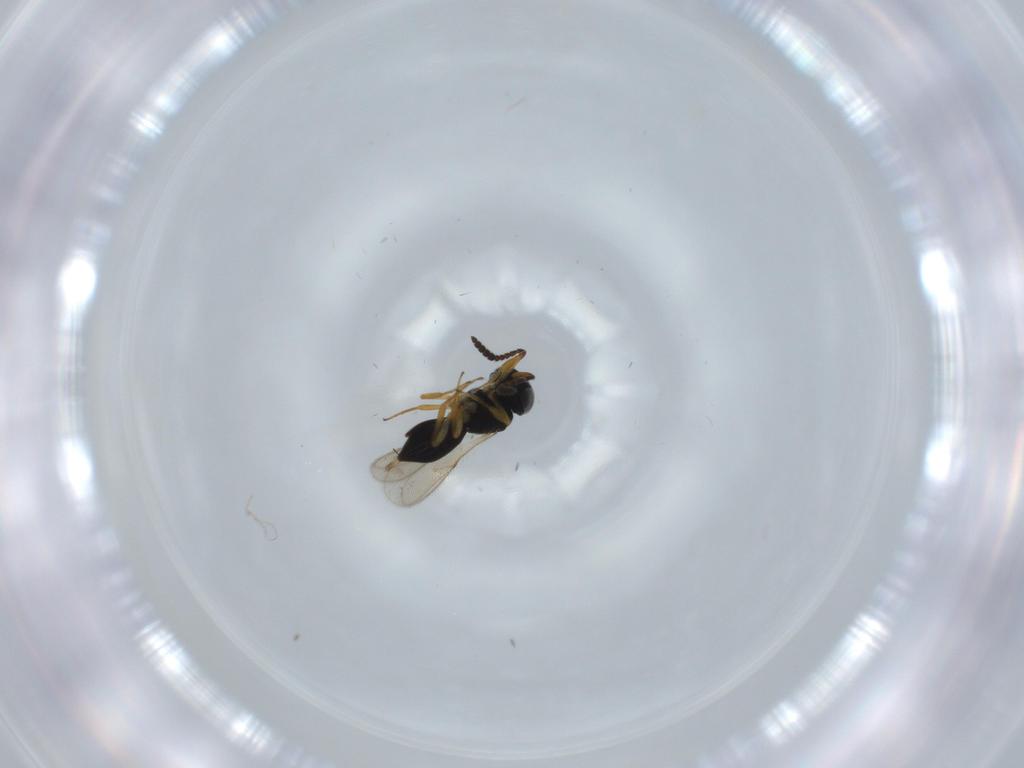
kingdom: Animalia
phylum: Arthropoda
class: Insecta
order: Hymenoptera
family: Scelionidae
